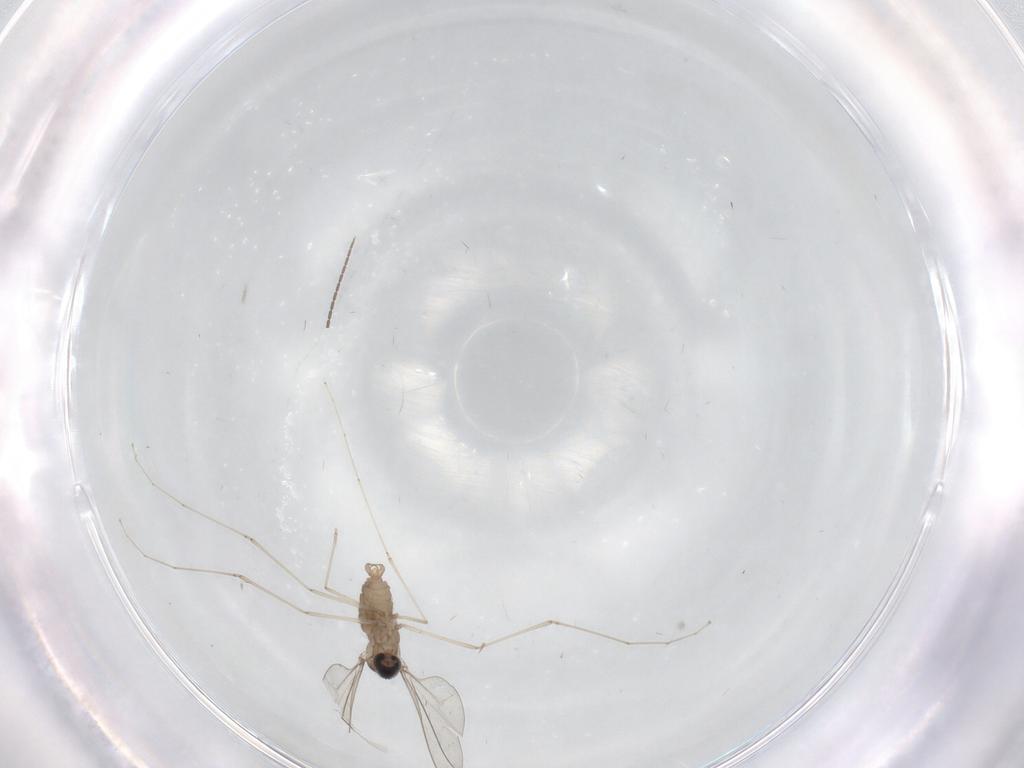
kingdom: Animalia
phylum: Arthropoda
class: Insecta
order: Diptera
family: Cecidomyiidae
